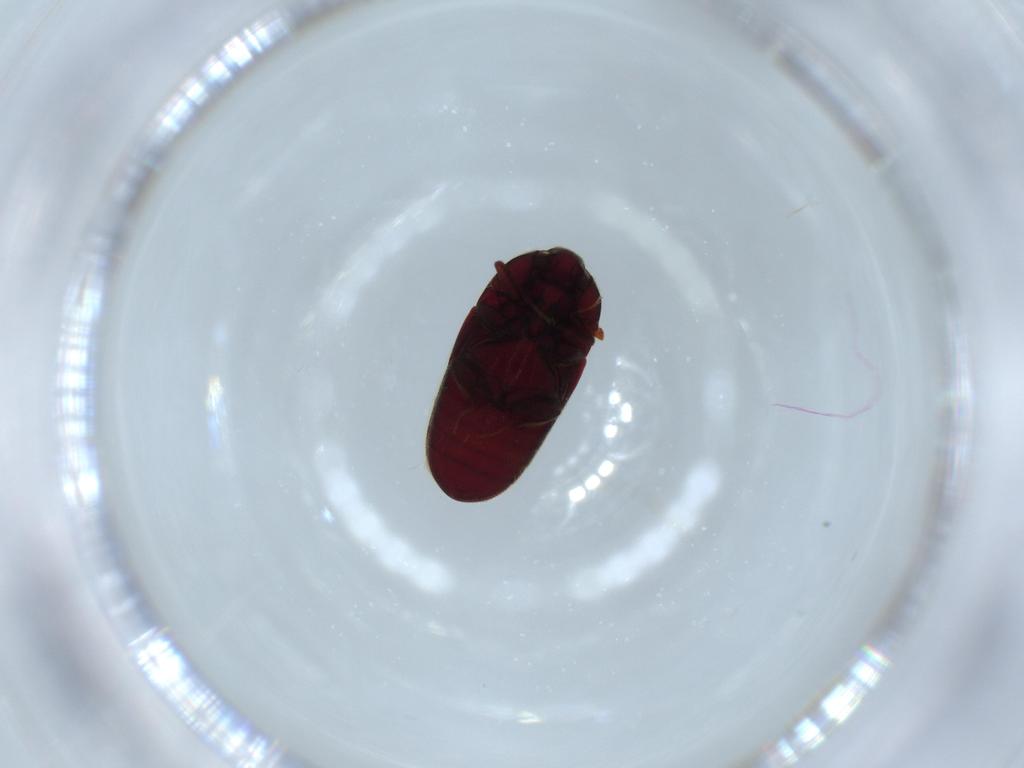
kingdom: Animalia
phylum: Arthropoda
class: Insecta
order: Coleoptera
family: Throscidae
